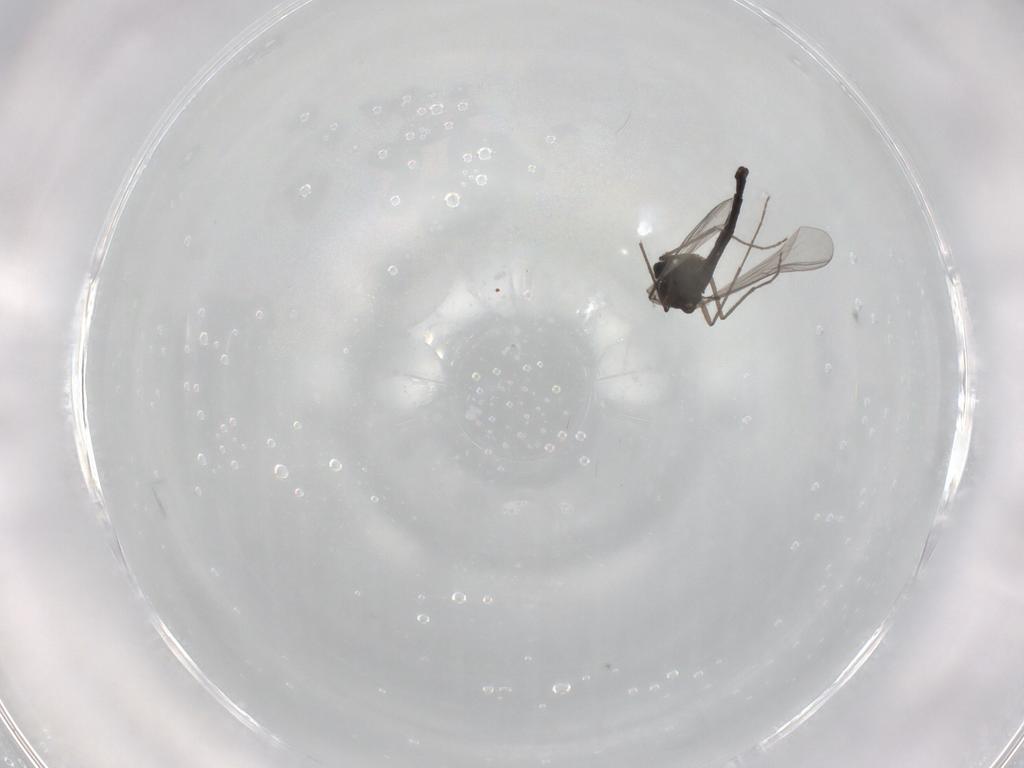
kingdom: Animalia
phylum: Arthropoda
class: Insecta
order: Diptera
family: Chironomidae
